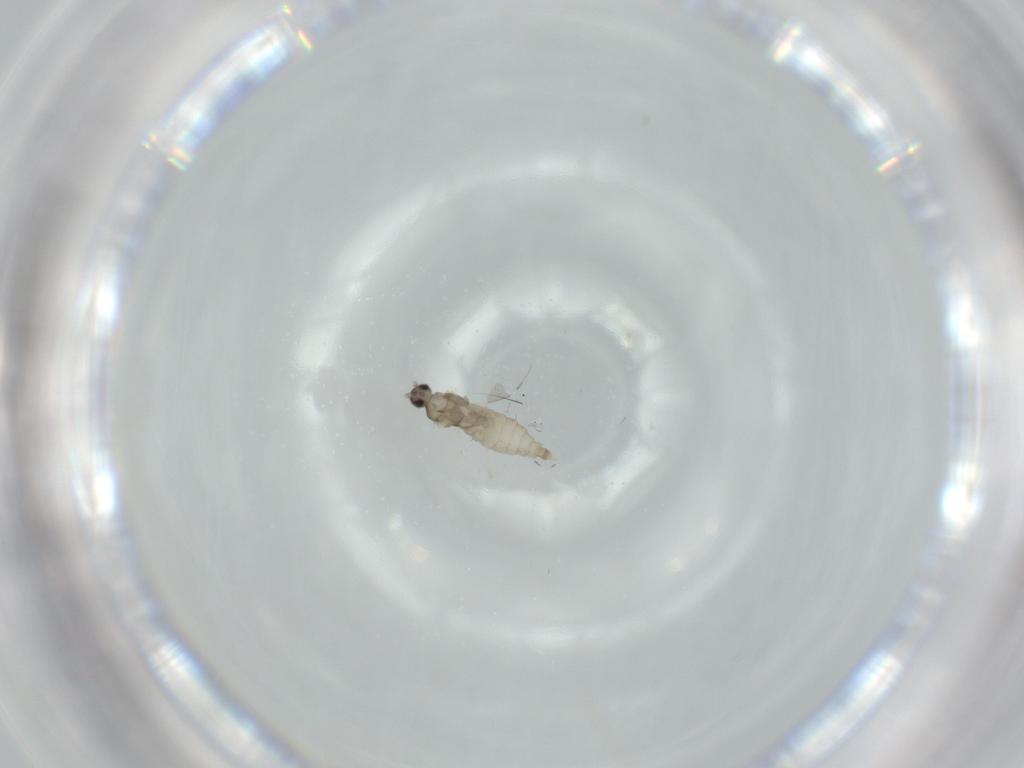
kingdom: Animalia
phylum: Arthropoda
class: Insecta
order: Diptera
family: Cecidomyiidae
